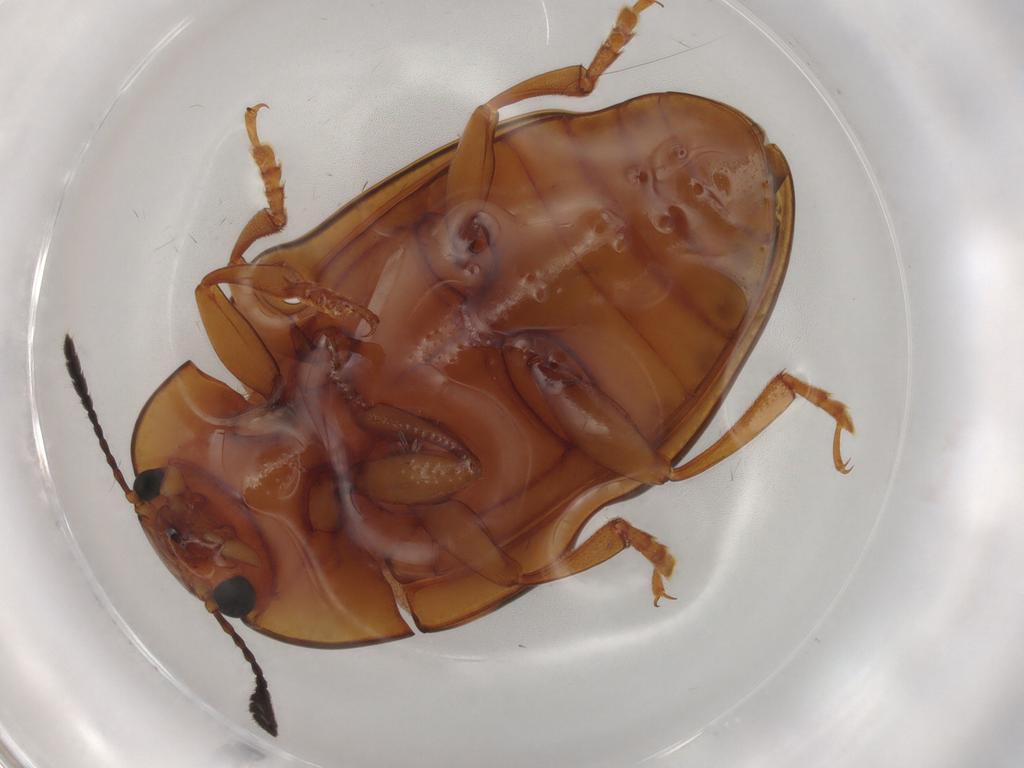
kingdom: Animalia
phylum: Arthropoda
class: Insecta
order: Coleoptera
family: Erotylidae
